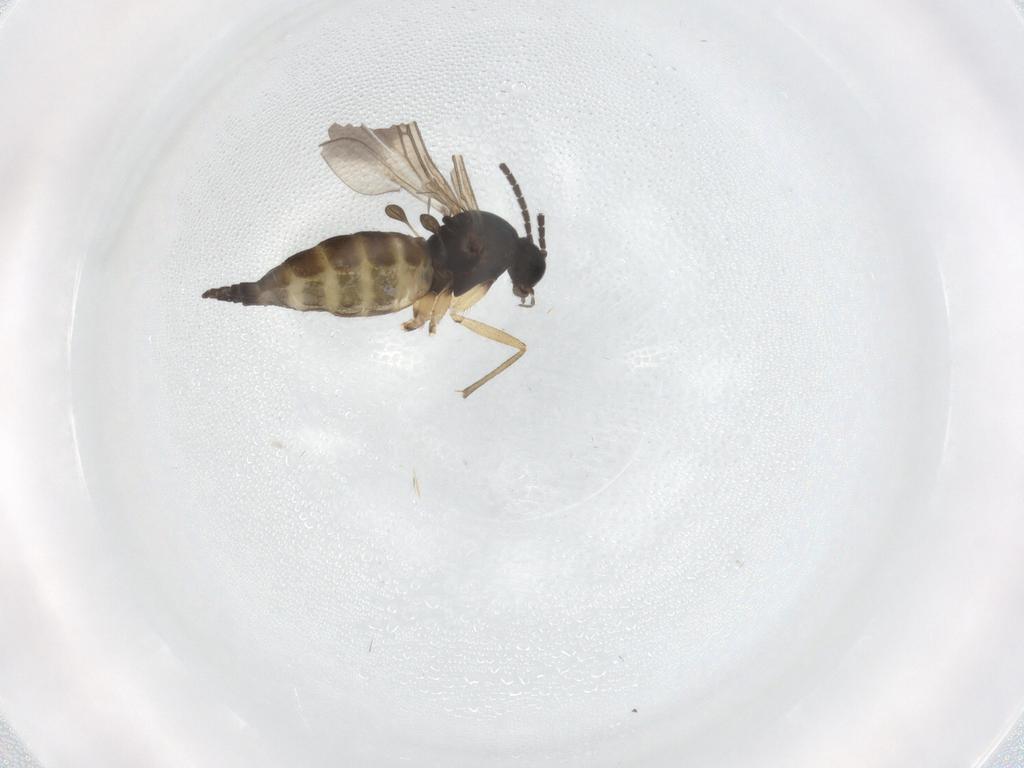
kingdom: Animalia
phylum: Arthropoda
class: Insecta
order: Diptera
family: Sciaridae
